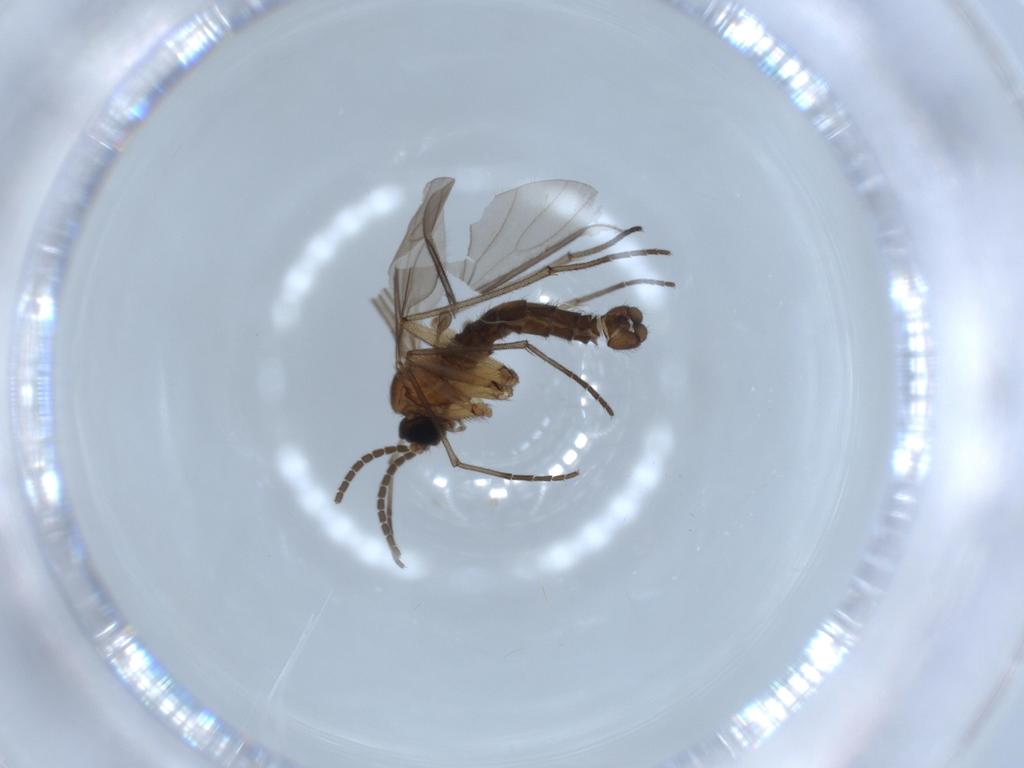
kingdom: Animalia
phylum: Arthropoda
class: Insecta
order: Diptera
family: Sciaridae
